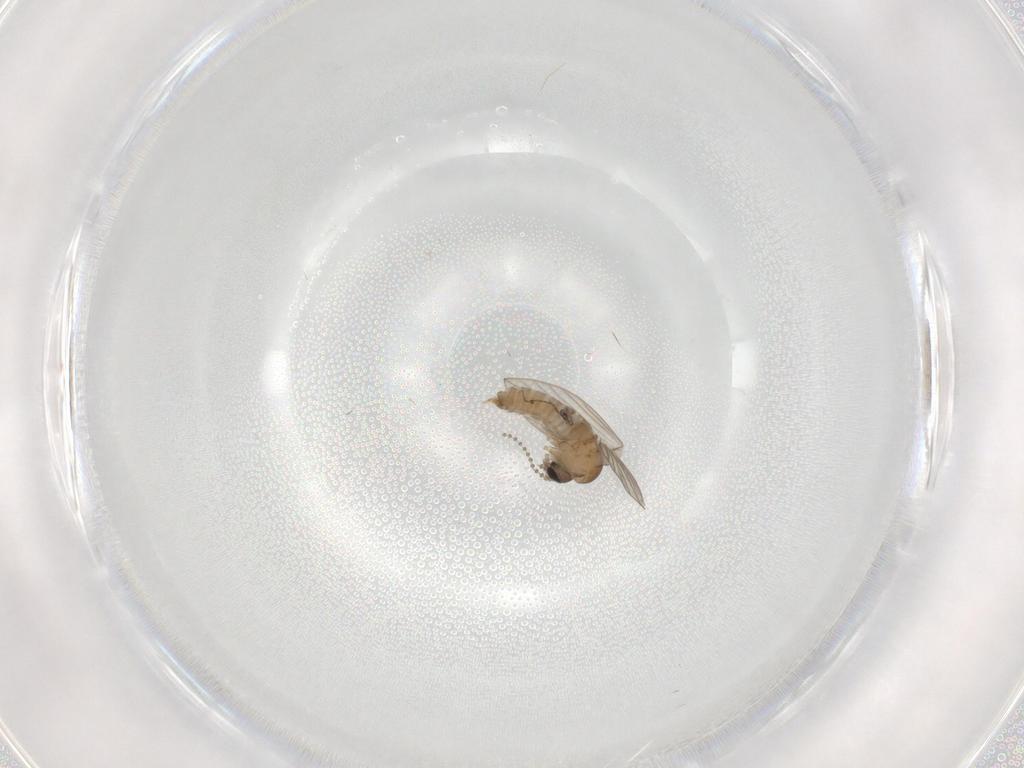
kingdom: Animalia
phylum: Arthropoda
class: Insecta
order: Diptera
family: Psychodidae
